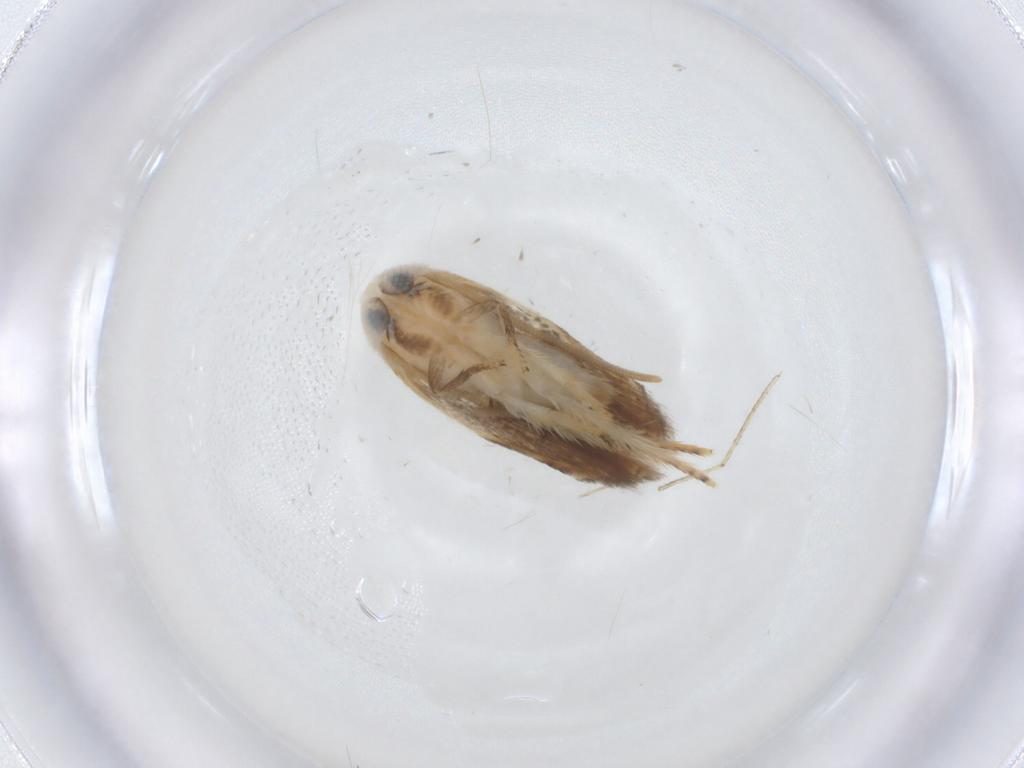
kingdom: Animalia
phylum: Arthropoda
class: Insecta
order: Lepidoptera
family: Opostegidae
